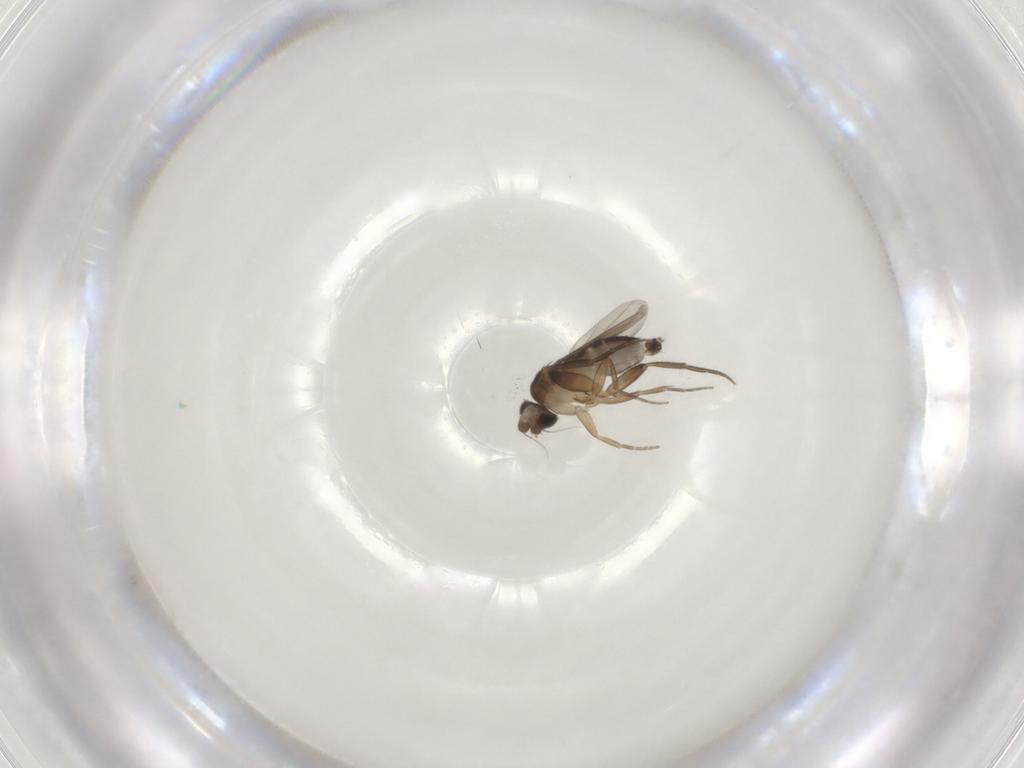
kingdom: Animalia
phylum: Arthropoda
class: Insecta
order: Diptera
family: Phoridae
